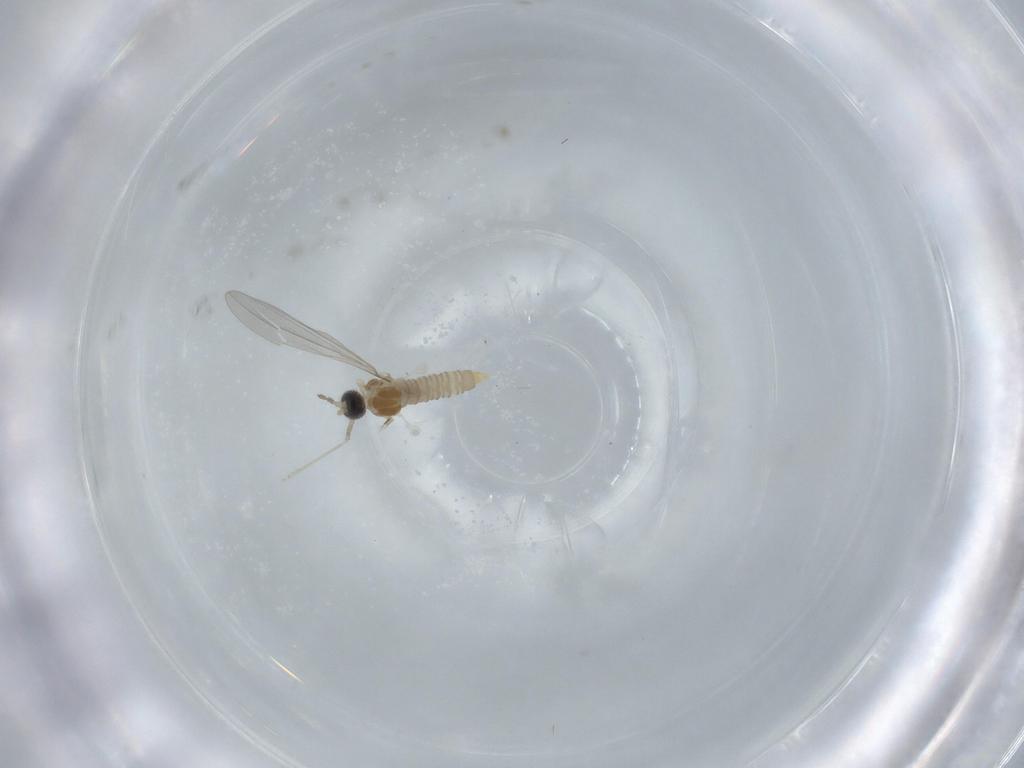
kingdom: Animalia
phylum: Arthropoda
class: Insecta
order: Diptera
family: Cecidomyiidae
